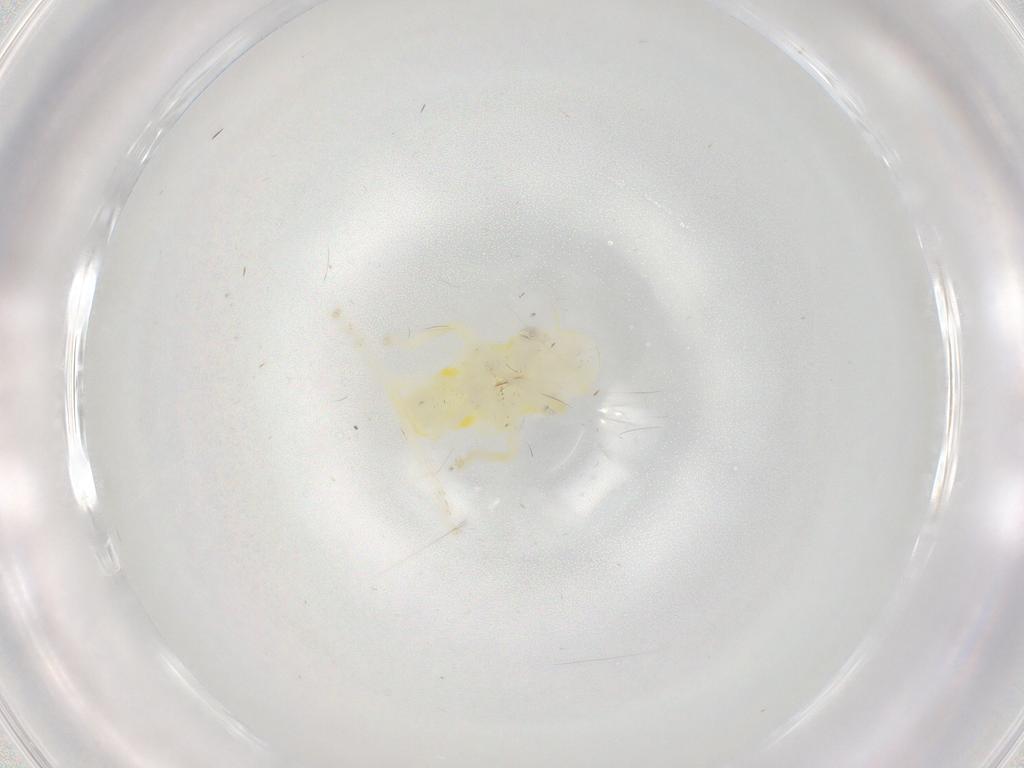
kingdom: Animalia
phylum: Arthropoda
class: Insecta
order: Hemiptera
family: Cicadellidae
